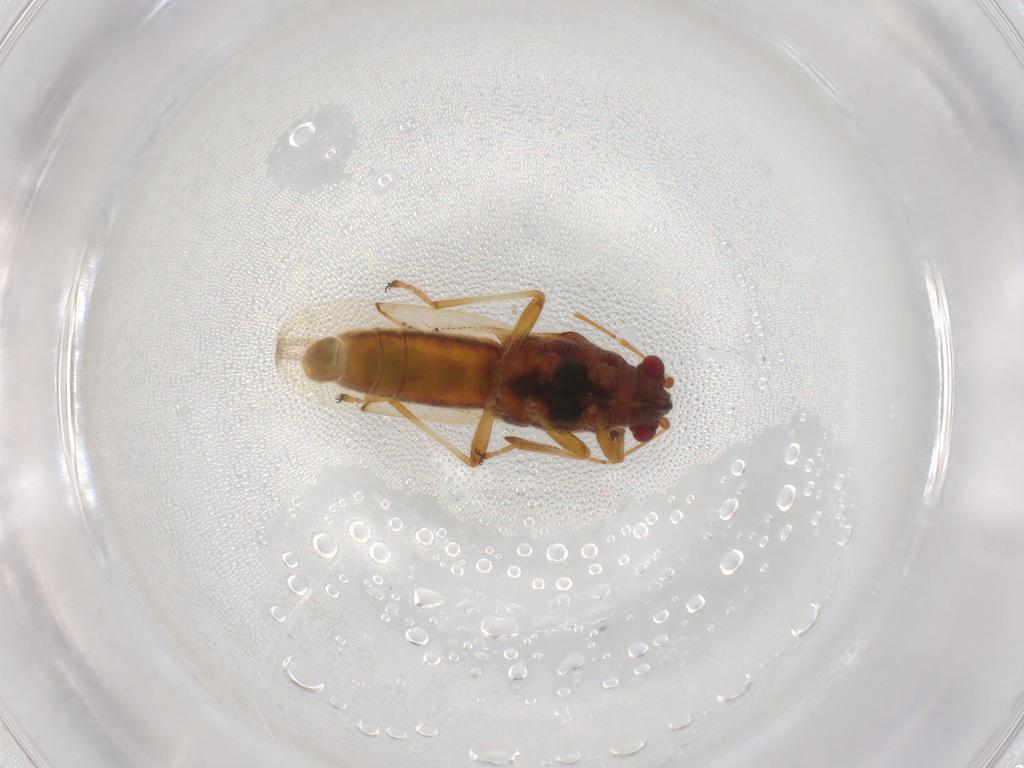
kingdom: Animalia
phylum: Arthropoda
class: Insecta
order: Hemiptera
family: Coreidae
